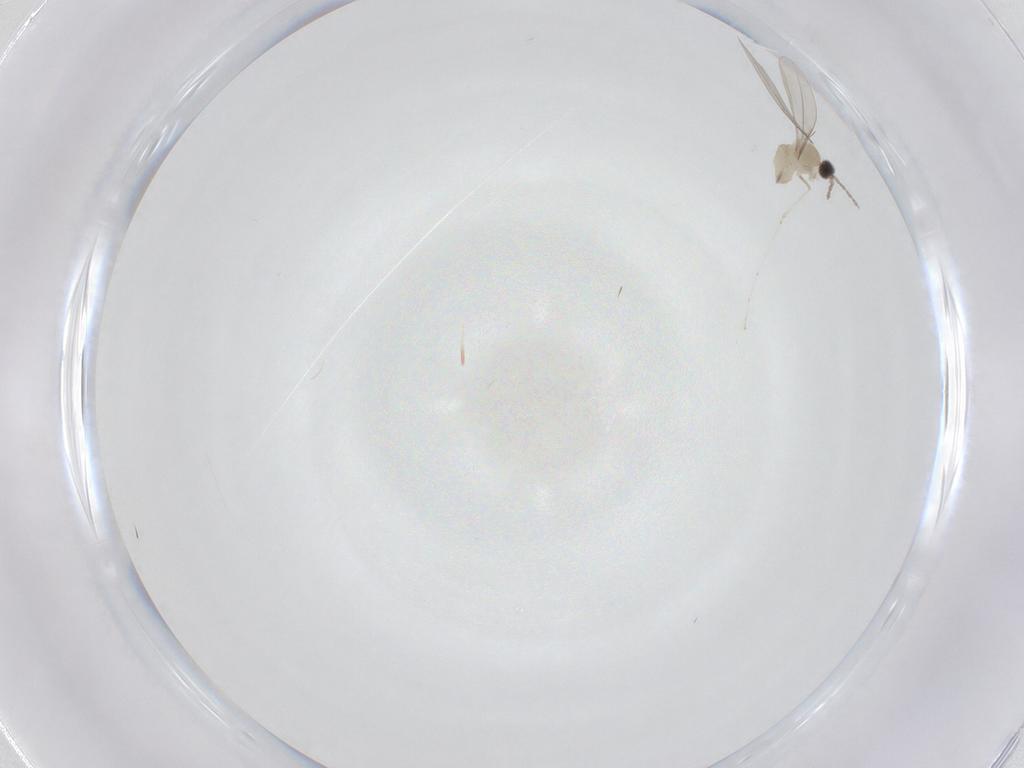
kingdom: Animalia
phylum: Arthropoda
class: Insecta
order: Diptera
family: Cecidomyiidae
